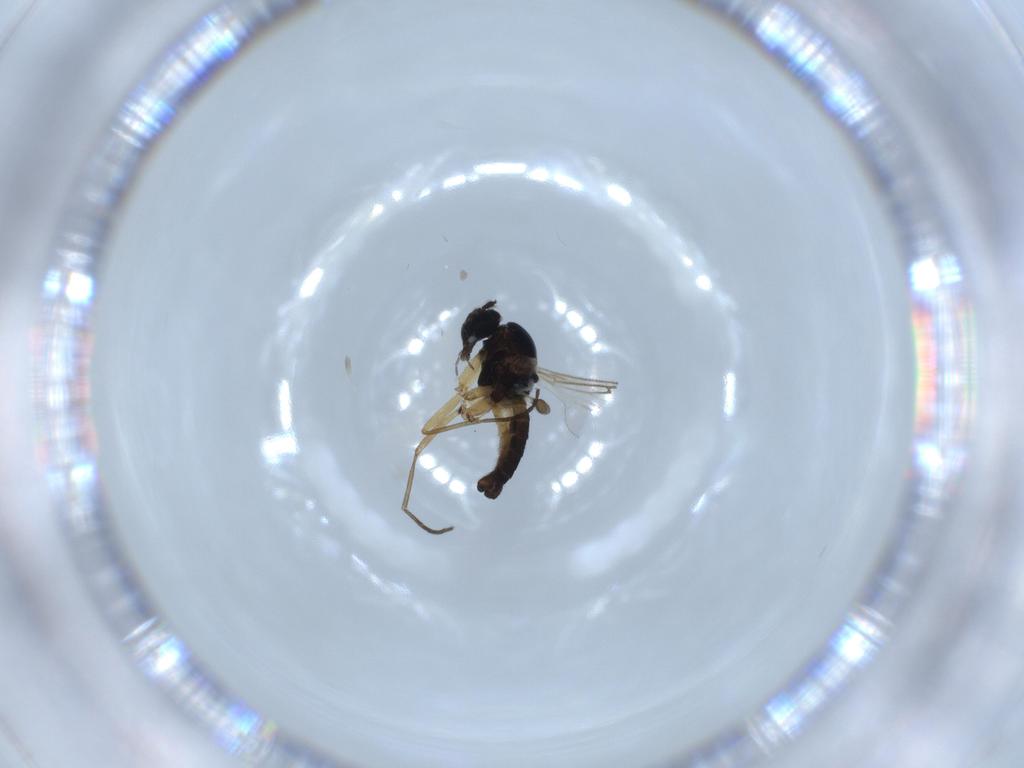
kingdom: Animalia
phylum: Arthropoda
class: Insecta
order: Diptera
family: Sciaridae
